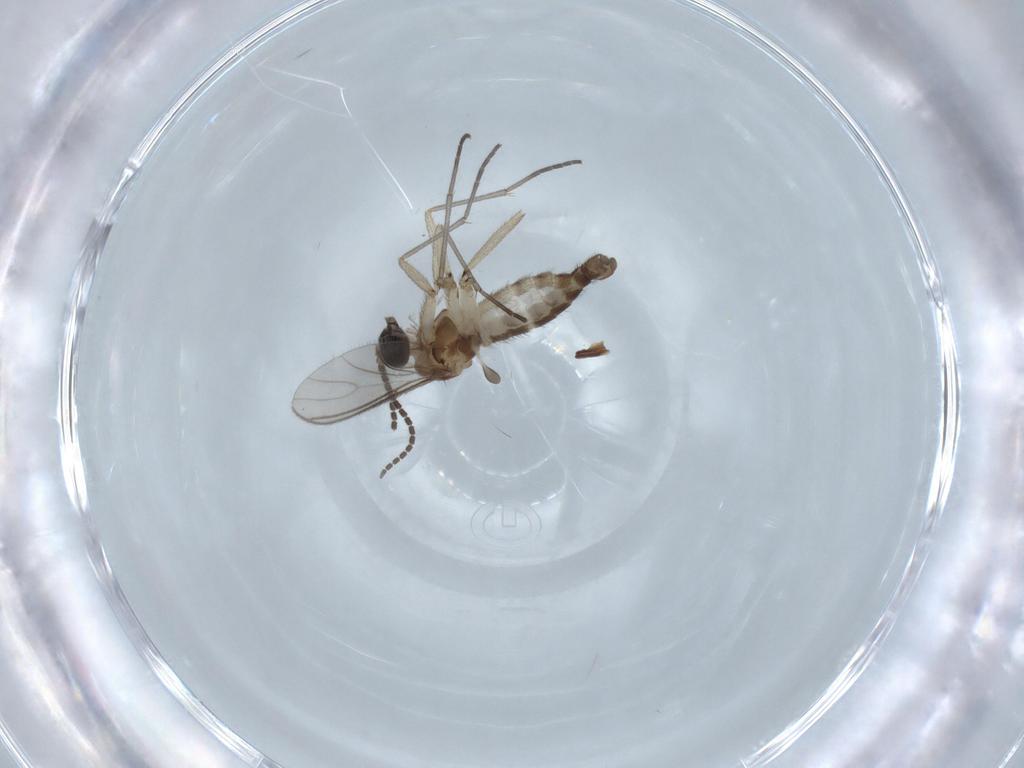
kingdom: Animalia
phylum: Arthropoda
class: Insecta
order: Diptera
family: Sciaridae
